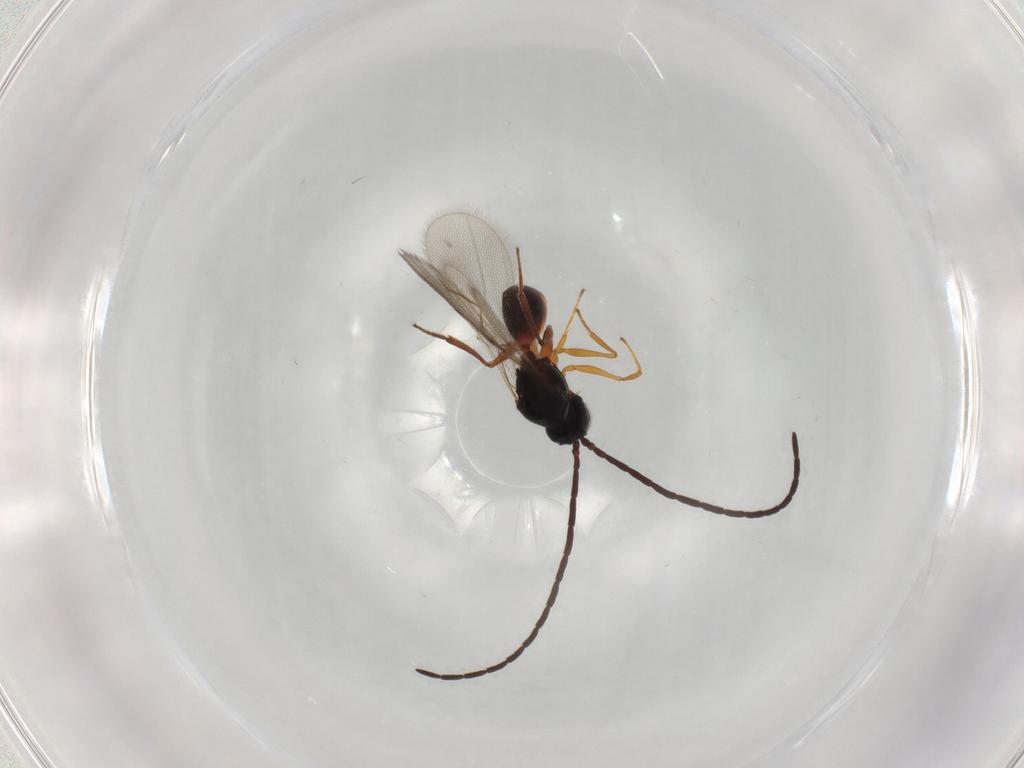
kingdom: Animalia
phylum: Arthropoda
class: Insecta
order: Hymenoptera
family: Figitidae
